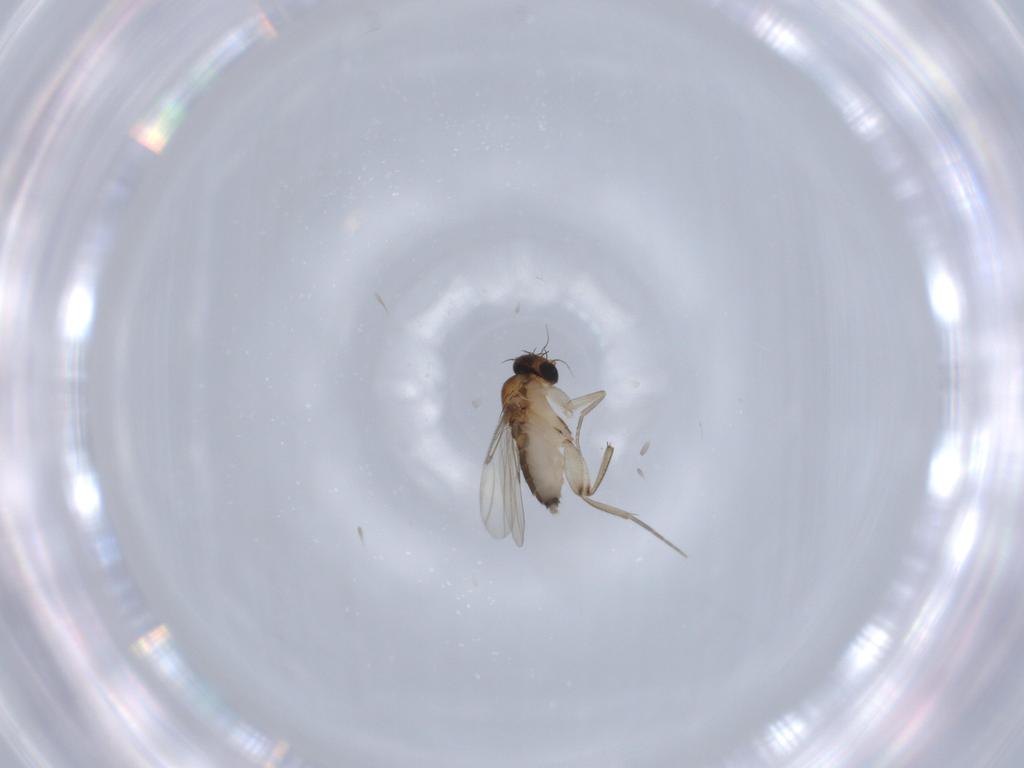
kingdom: Animalia
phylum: Arthropoda
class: Insecta
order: Diptera
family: Phoridae
